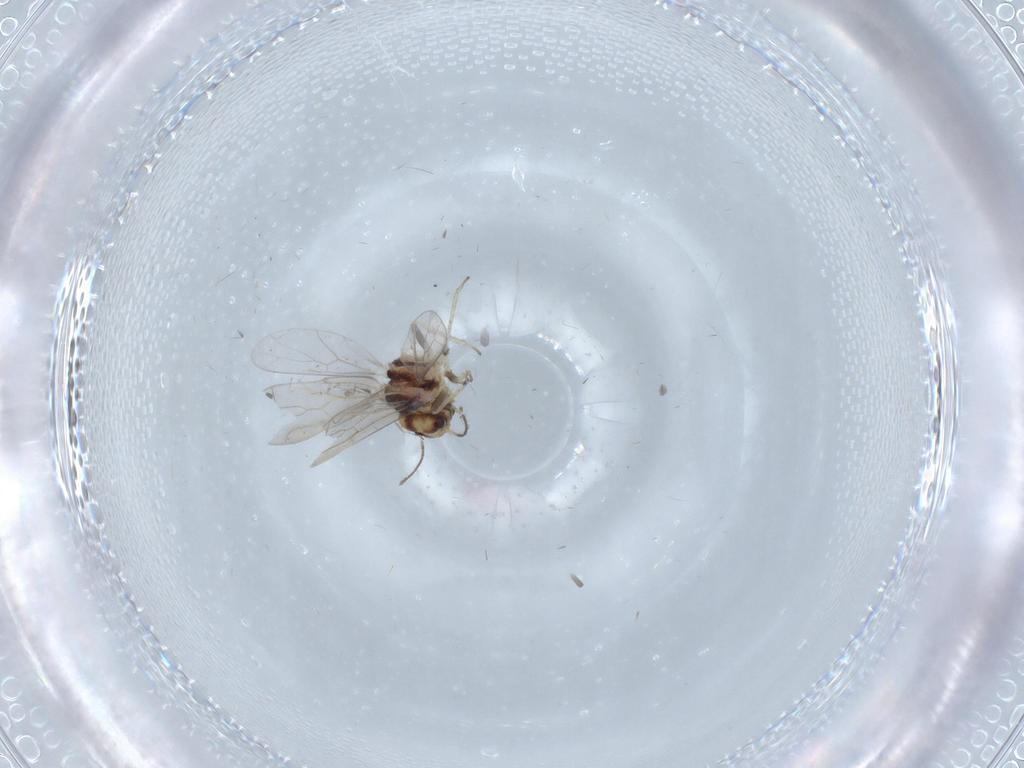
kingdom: Animalia
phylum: Arthropoda
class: Insecta
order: Psocodea
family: Ectopsocidae
